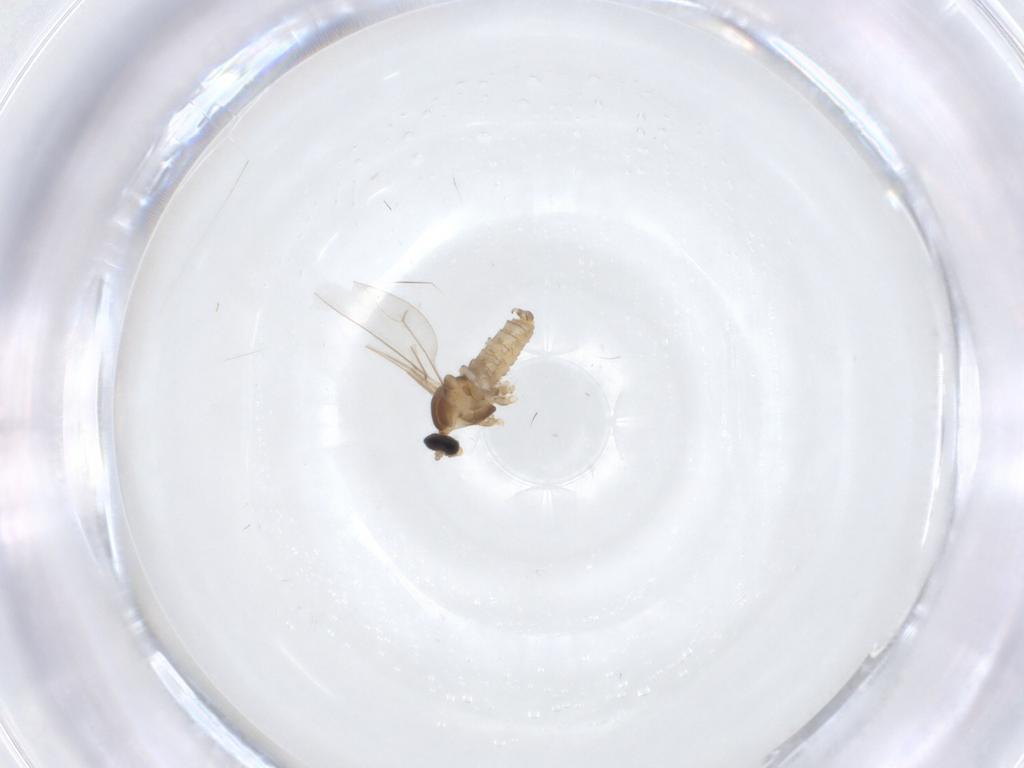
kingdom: Animalia
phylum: Arthropoda
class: Insecta
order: Diptera
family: Cecidomyiidae
